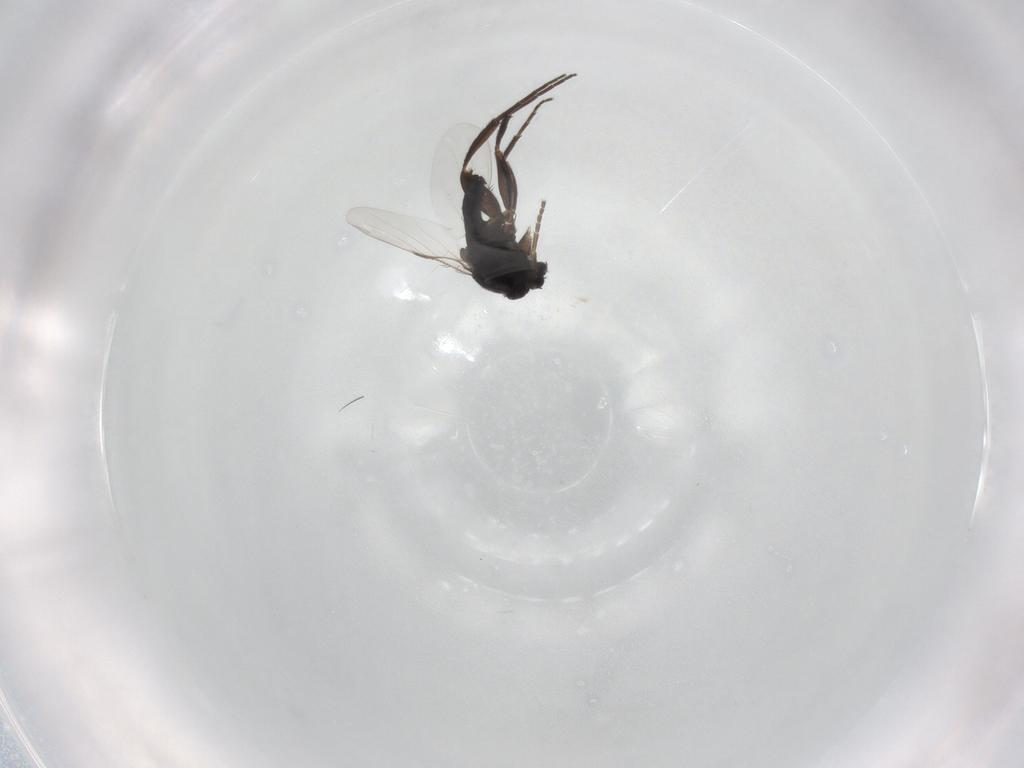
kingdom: Animalia
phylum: Arthropoda
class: Insecta
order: Diptera
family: Phoridae
